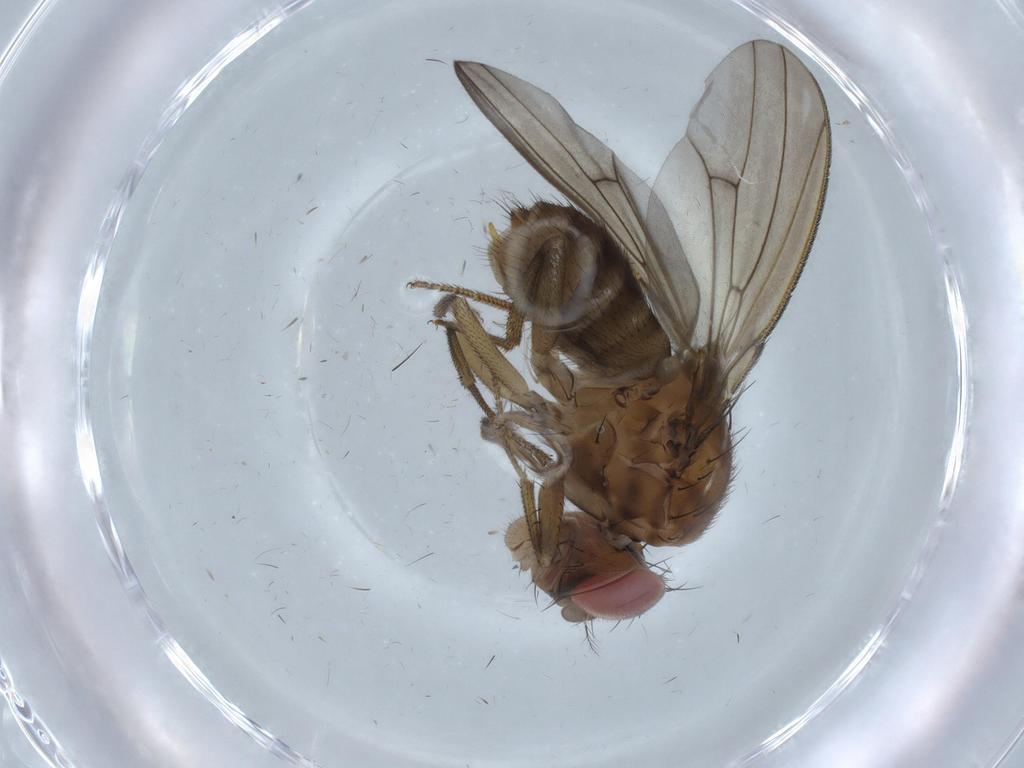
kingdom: Animalia
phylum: Arthropoda
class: Insecta
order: Diptera
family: Drosophilidae
